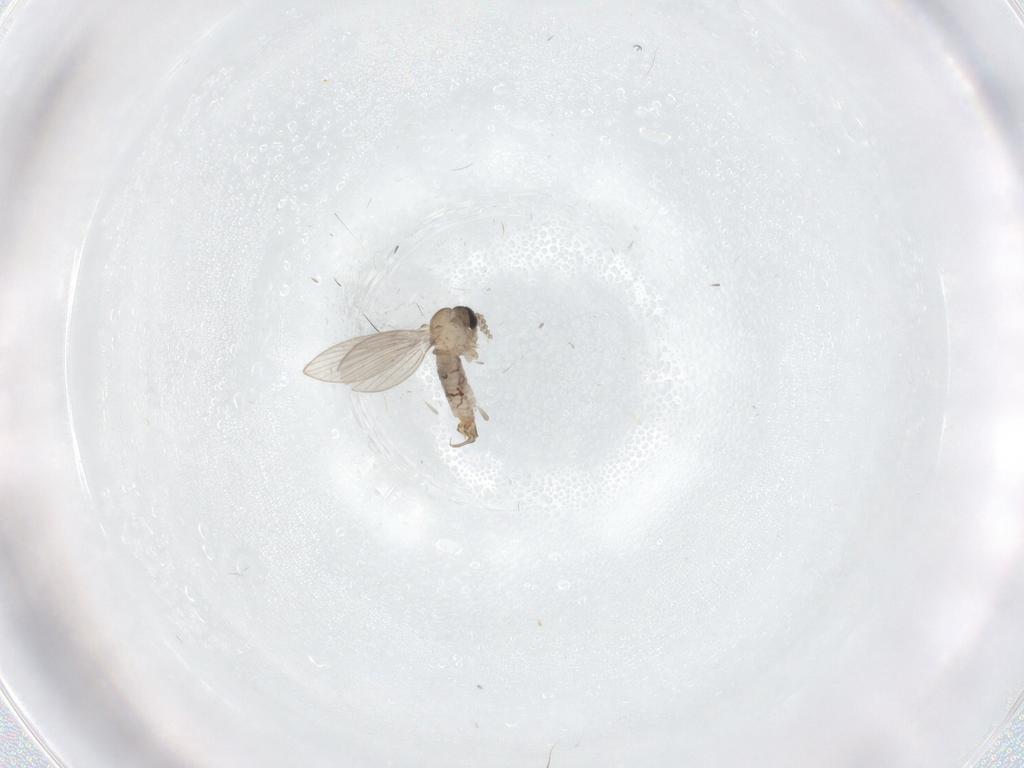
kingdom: Animalia
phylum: Arthropoda
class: Insecta
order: Diptera
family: Psychodidae
